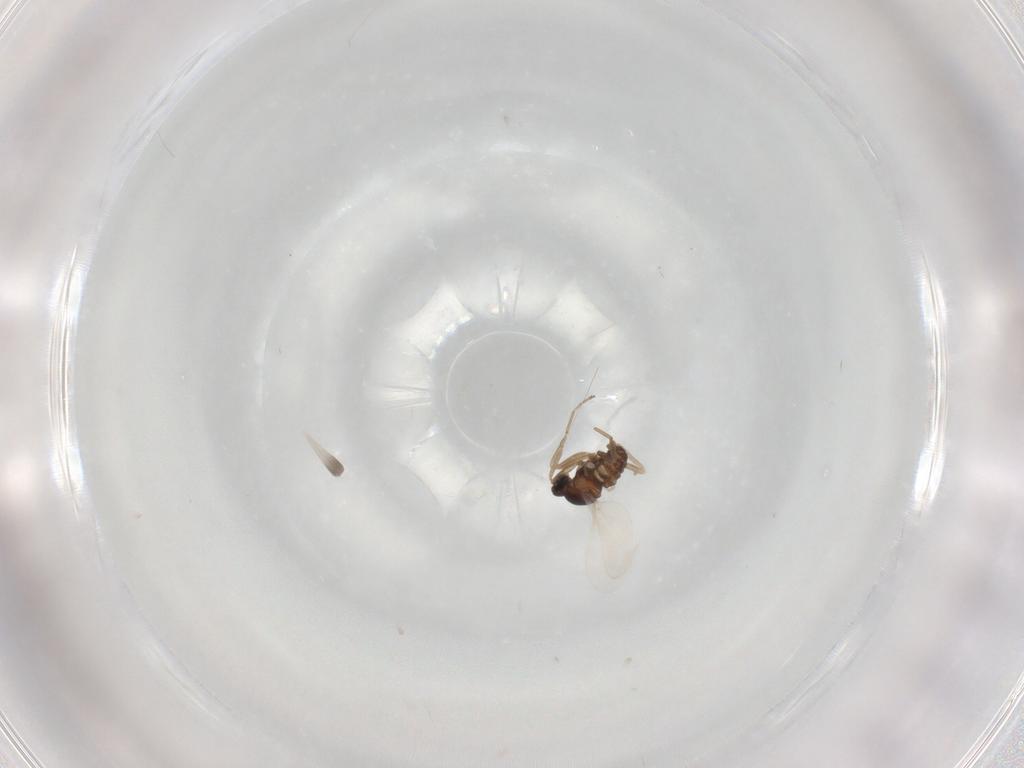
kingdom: Animalia
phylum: Arthropoda
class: Insecta
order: Diptera
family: Cecidomyiidae
